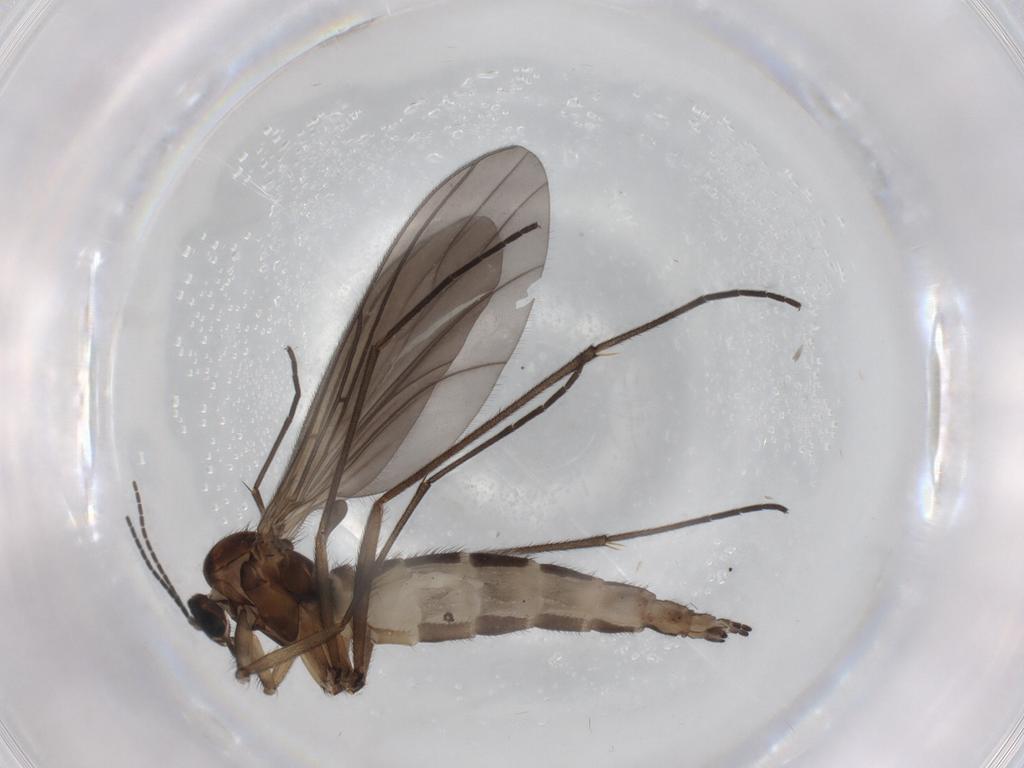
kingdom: Animalia
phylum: Arthropoda
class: Insecta
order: Diptera
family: Sciaridae
